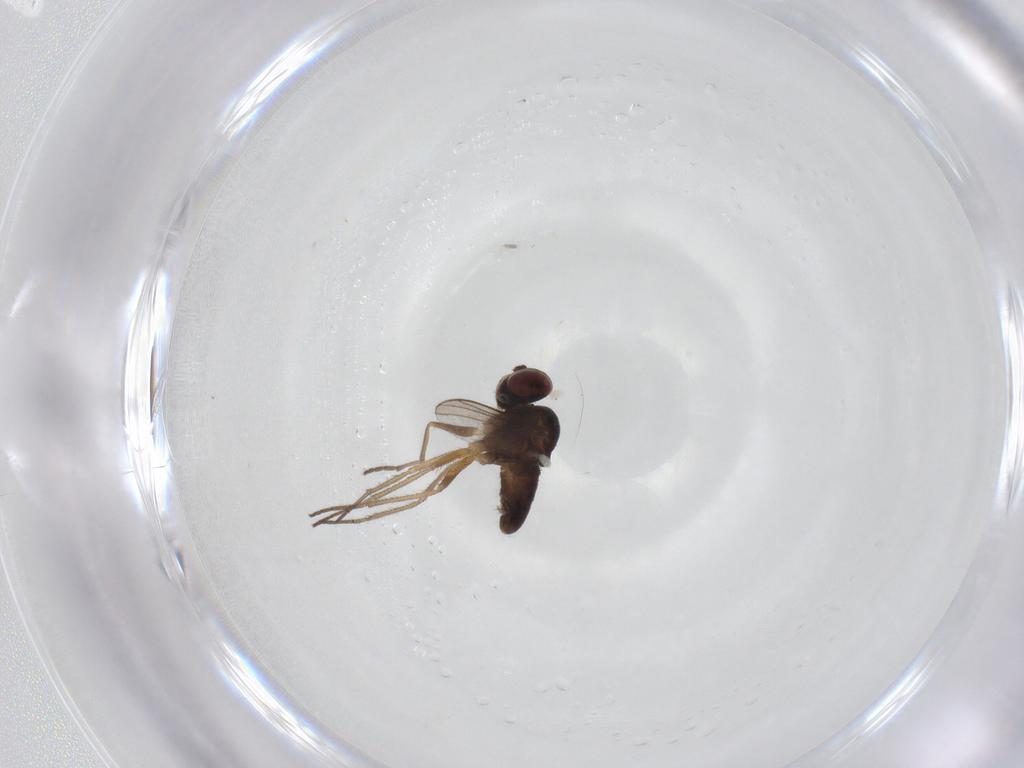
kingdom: Animalia
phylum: Arthropoda
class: Insecta
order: Diptera
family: Dolichopodidae
